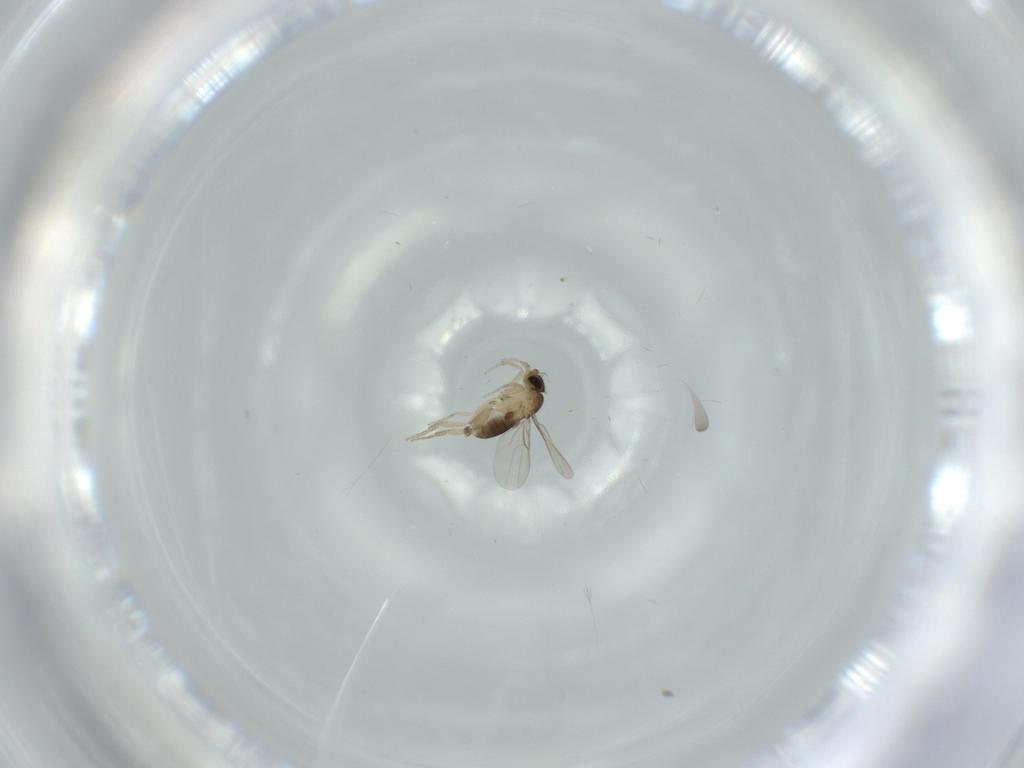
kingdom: Animalia
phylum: Arthropoda
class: Insecta
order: Diptera
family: Phoridae
